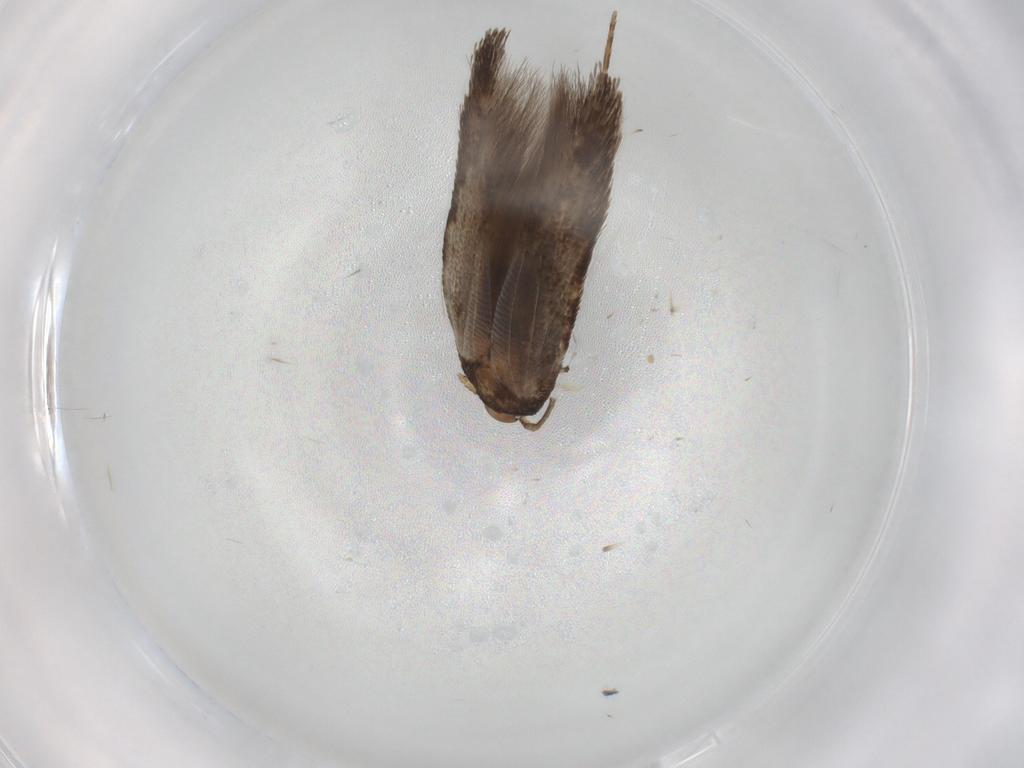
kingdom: Animalia
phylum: Arthropoda
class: Insecta
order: Lepidoptera
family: Cosmopterigidae
